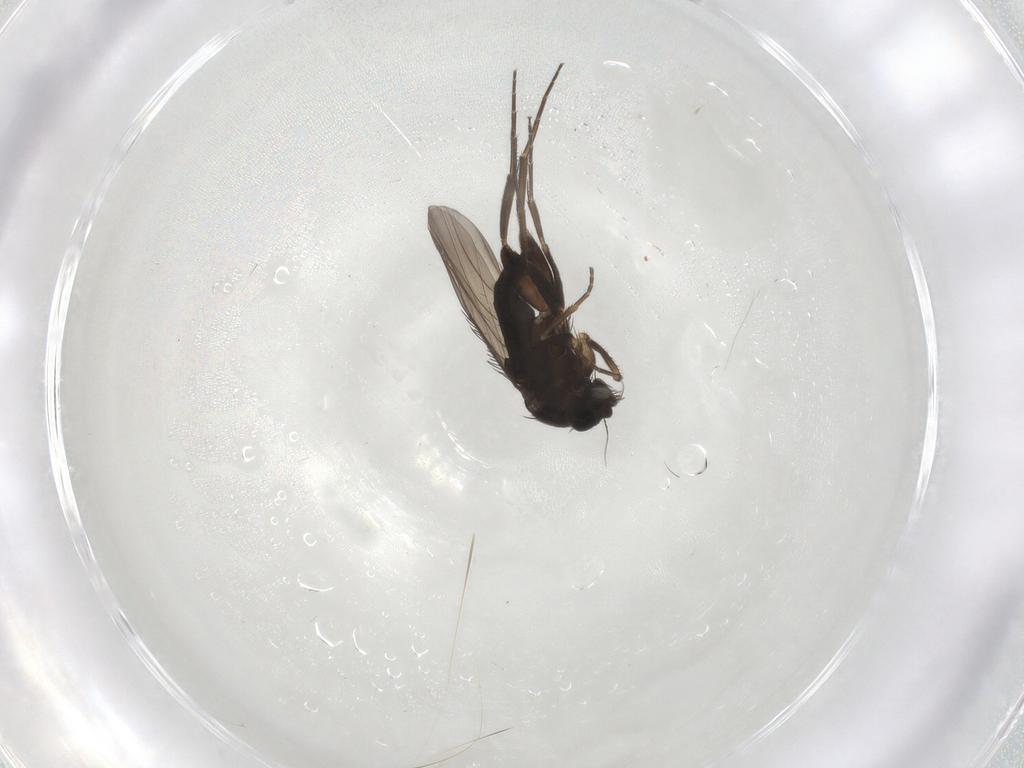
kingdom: Animalia
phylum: Arthropoda
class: Insecta
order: Diptera
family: Phoridae
